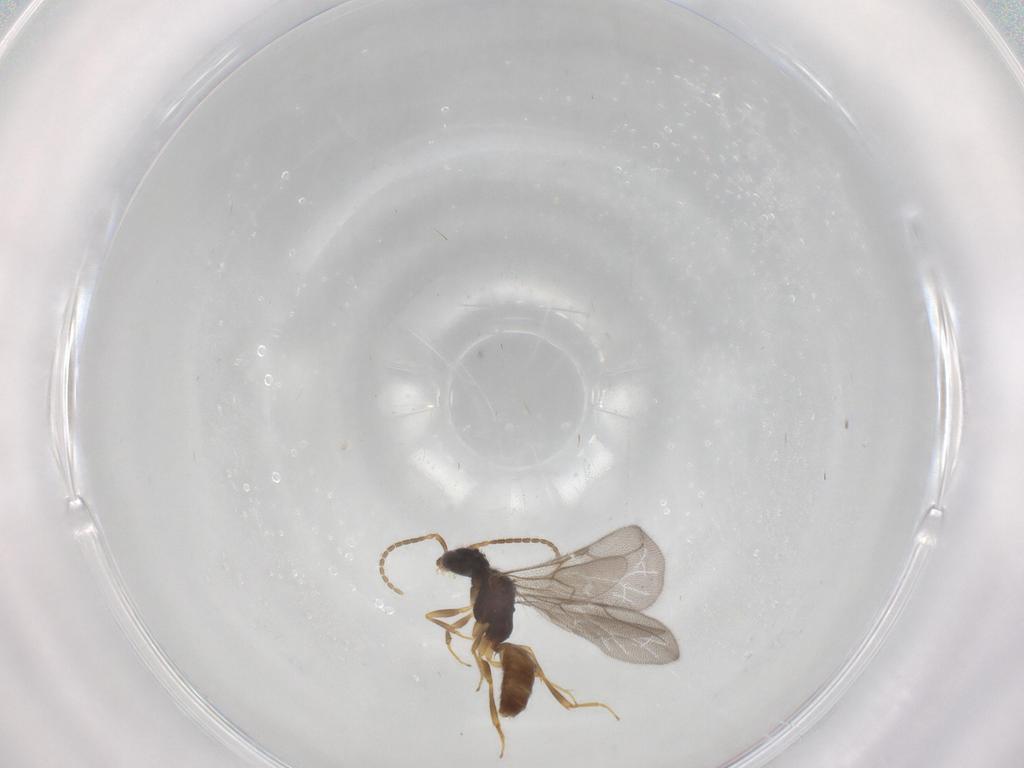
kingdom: Animalia
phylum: Arthropoda
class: Insecta
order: Hymenoptera
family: Bethylidae
